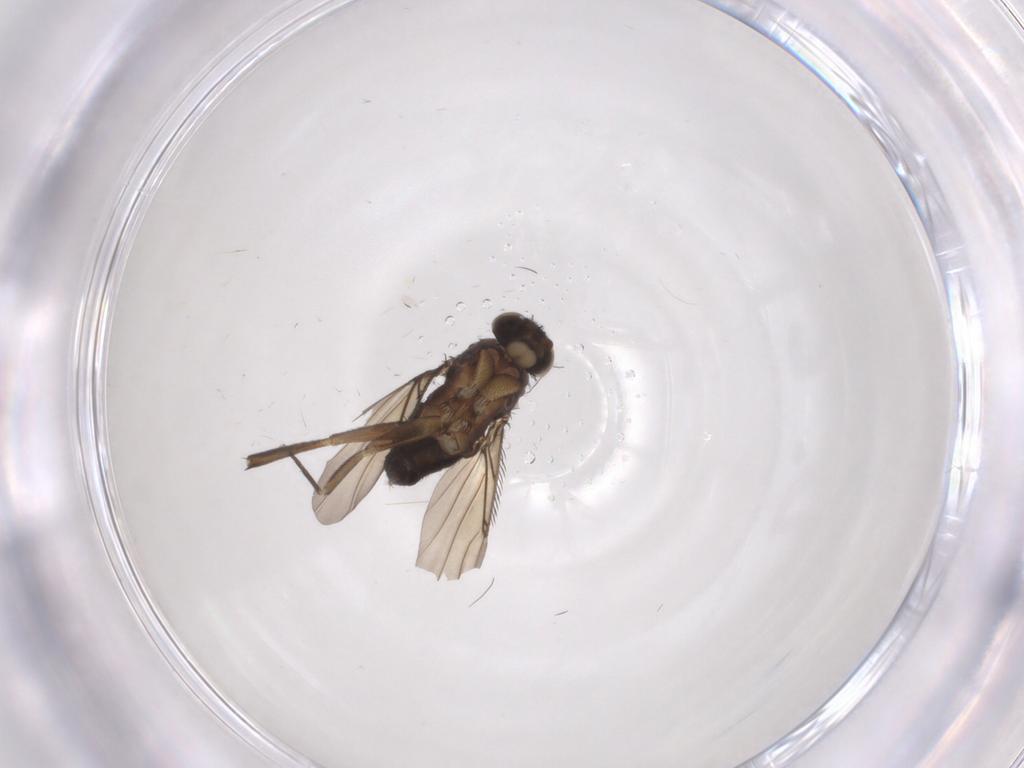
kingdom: Animalia
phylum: Arthropoda
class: Insecta
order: Diptera
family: Phoridae
